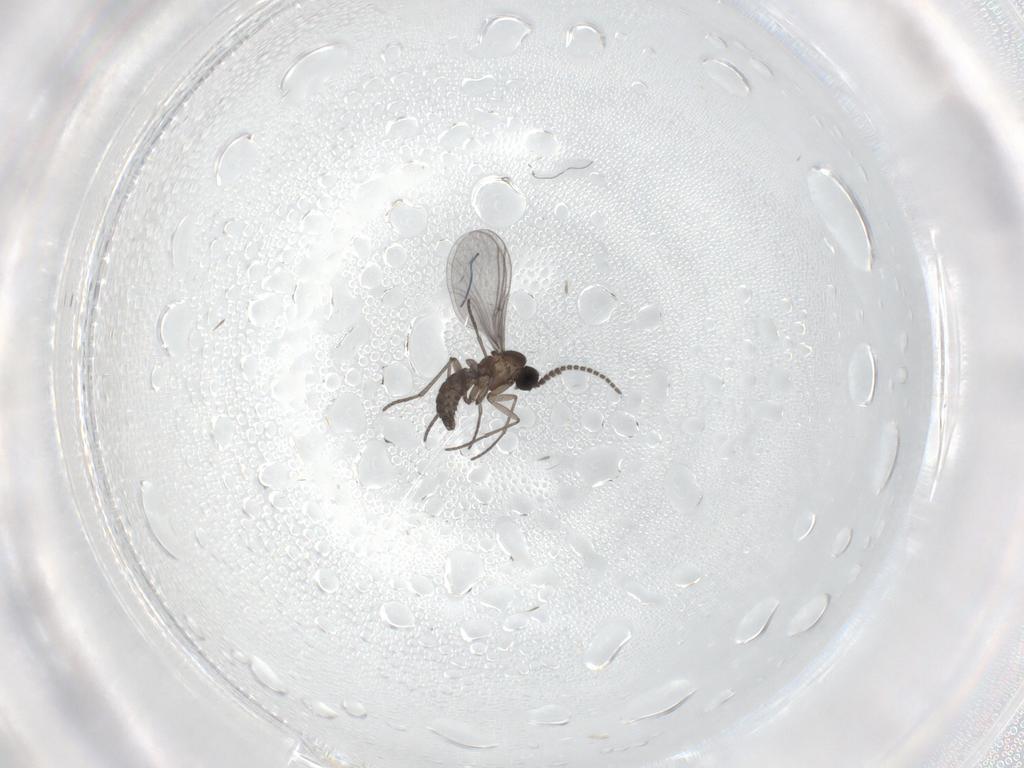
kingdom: Animalia
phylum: Arthropoda
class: Insecta
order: Diptera
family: Sciaridae
